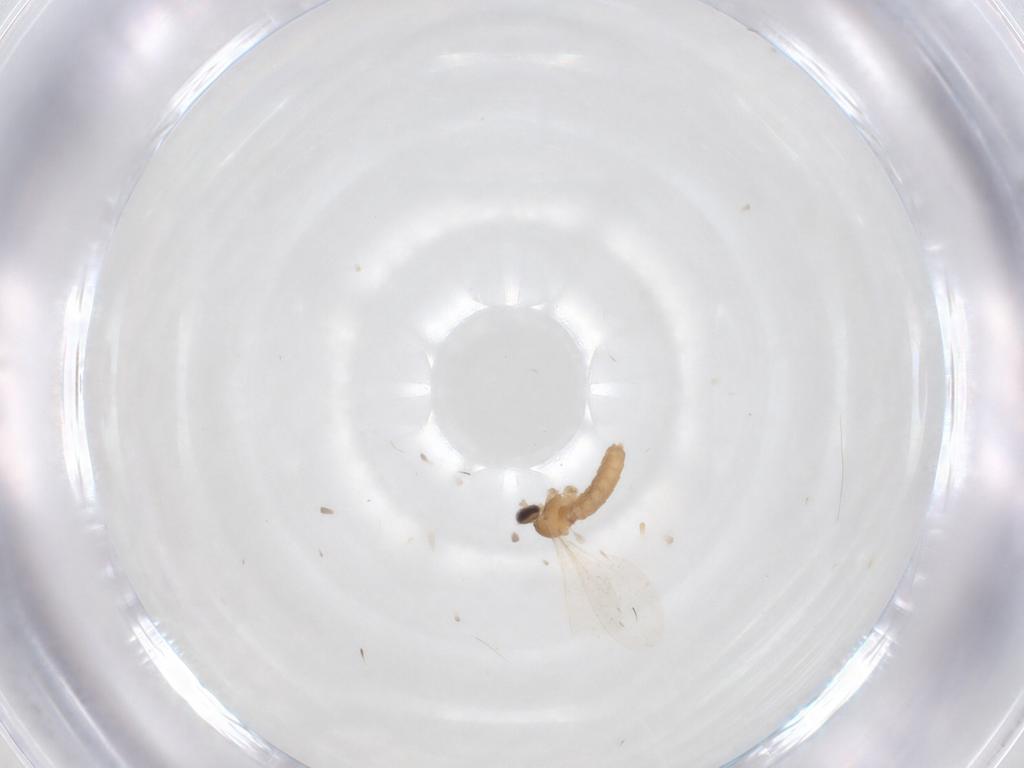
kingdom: Animalia
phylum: Arthropoda
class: Insecta
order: Diptera
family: Cecidomyiidae
